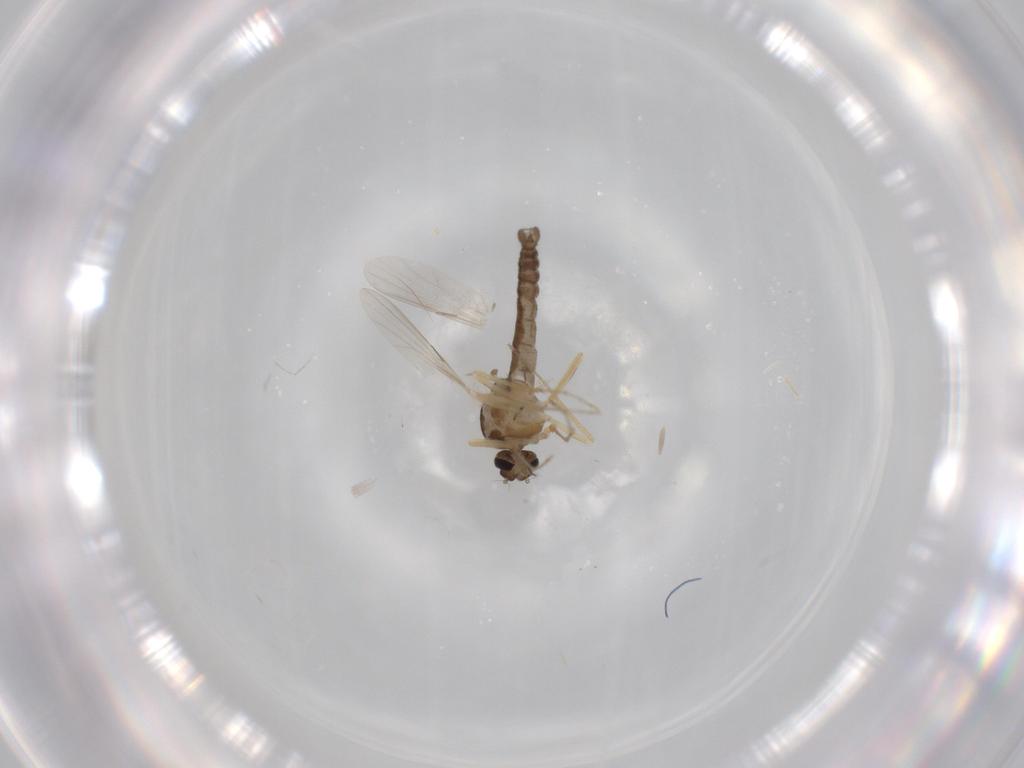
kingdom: Animalia
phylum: Arthropoda
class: Insecta
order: Diptera
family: Ceratopogonidae
